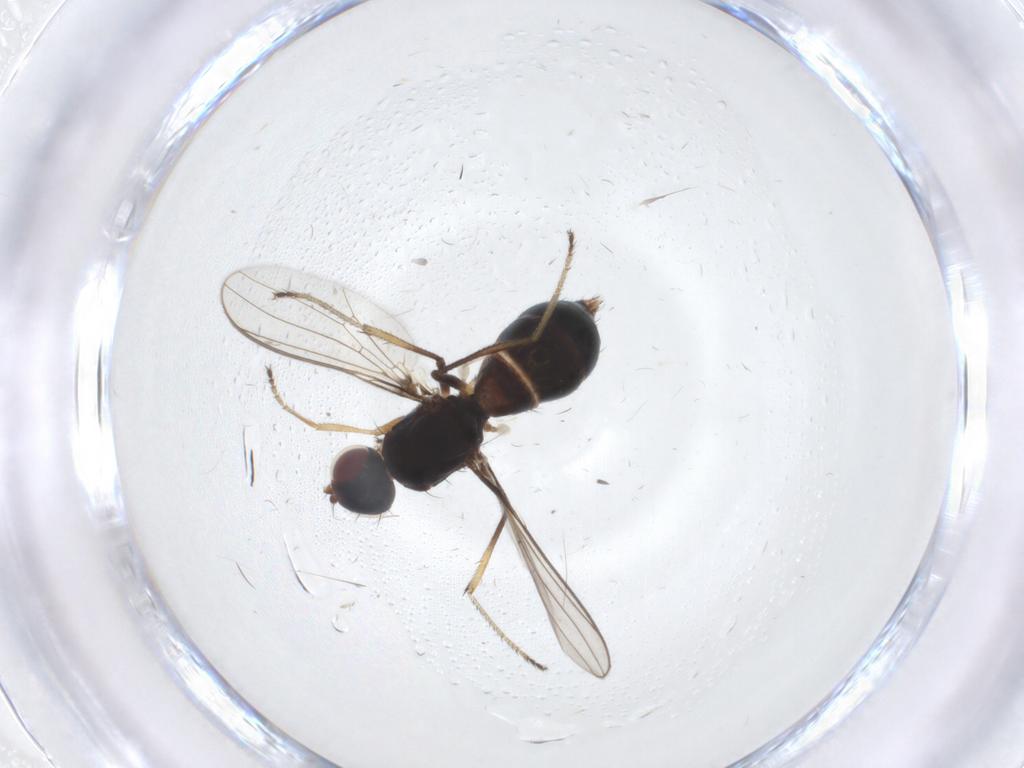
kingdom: Animalia
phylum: Arthropoda
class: Insecta
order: Diptera
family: Sepsidae
